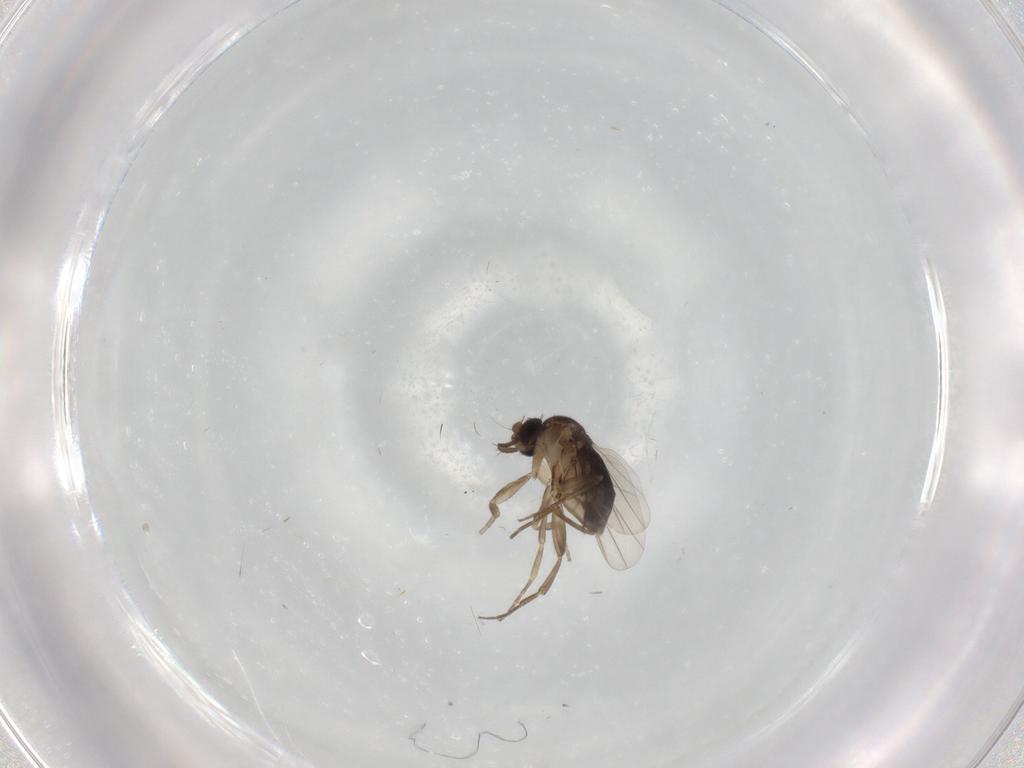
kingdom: Animalia
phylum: Arthropoda
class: Insecta
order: Diptera
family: Phoridae
